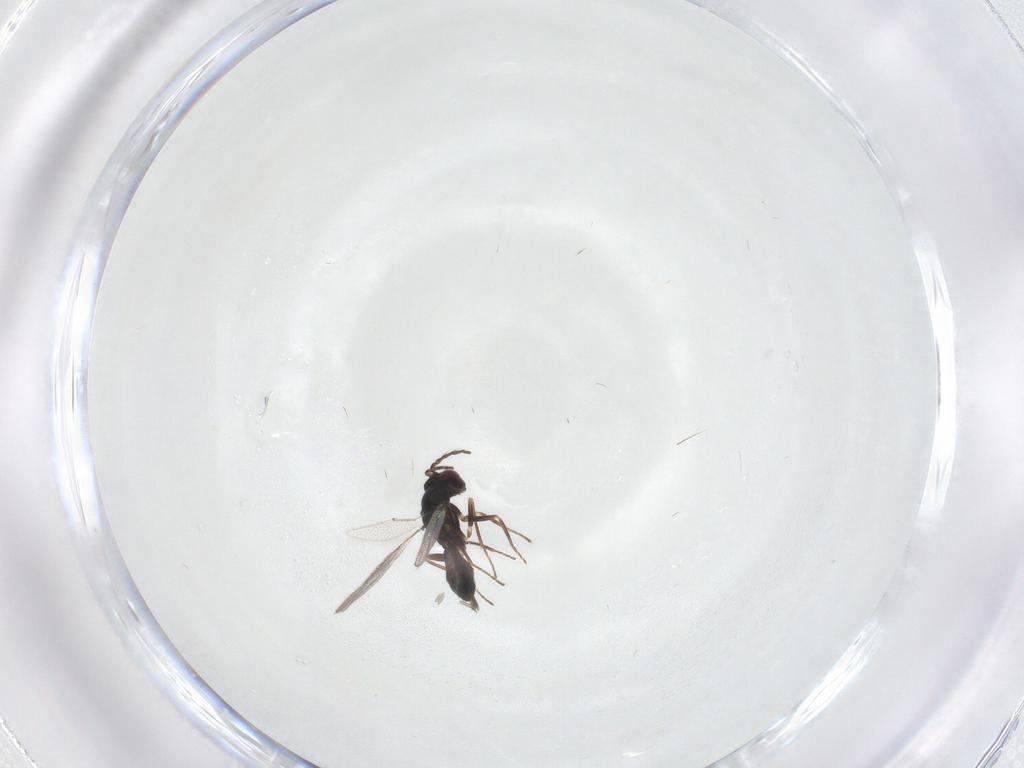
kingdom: Animalia
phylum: Arthropoda
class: Insecta
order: Hymenoptera
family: Eulophidae
